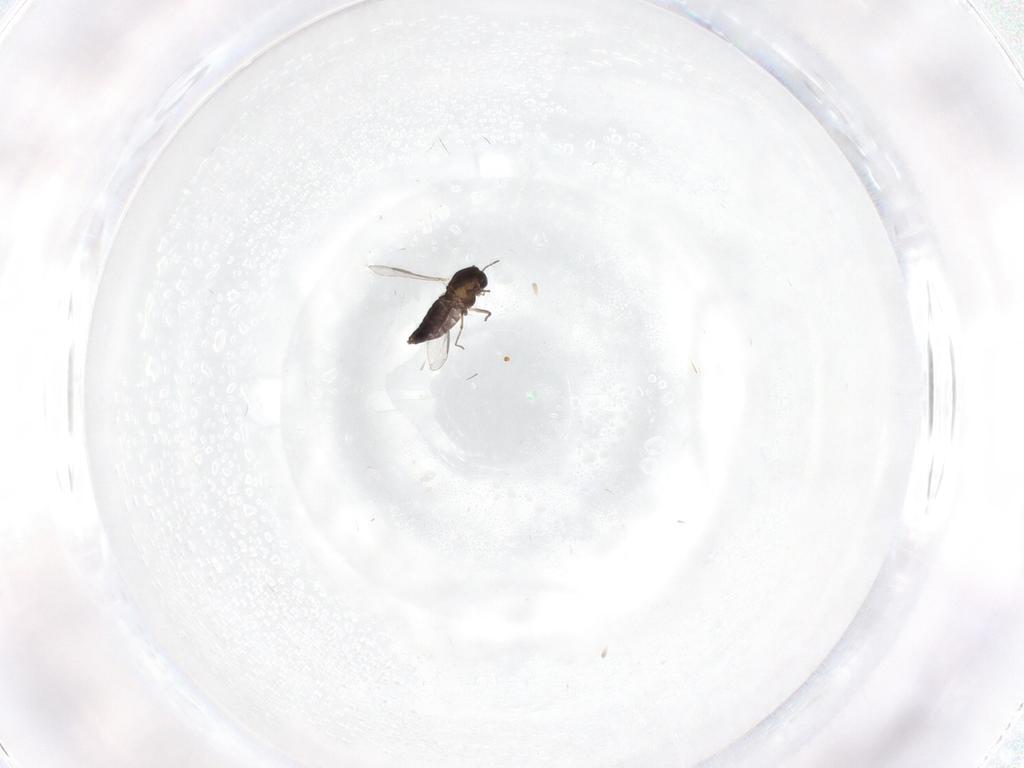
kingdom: Animalia
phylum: Arthropoda
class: Insecta
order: Diptera
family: Chironomidae
